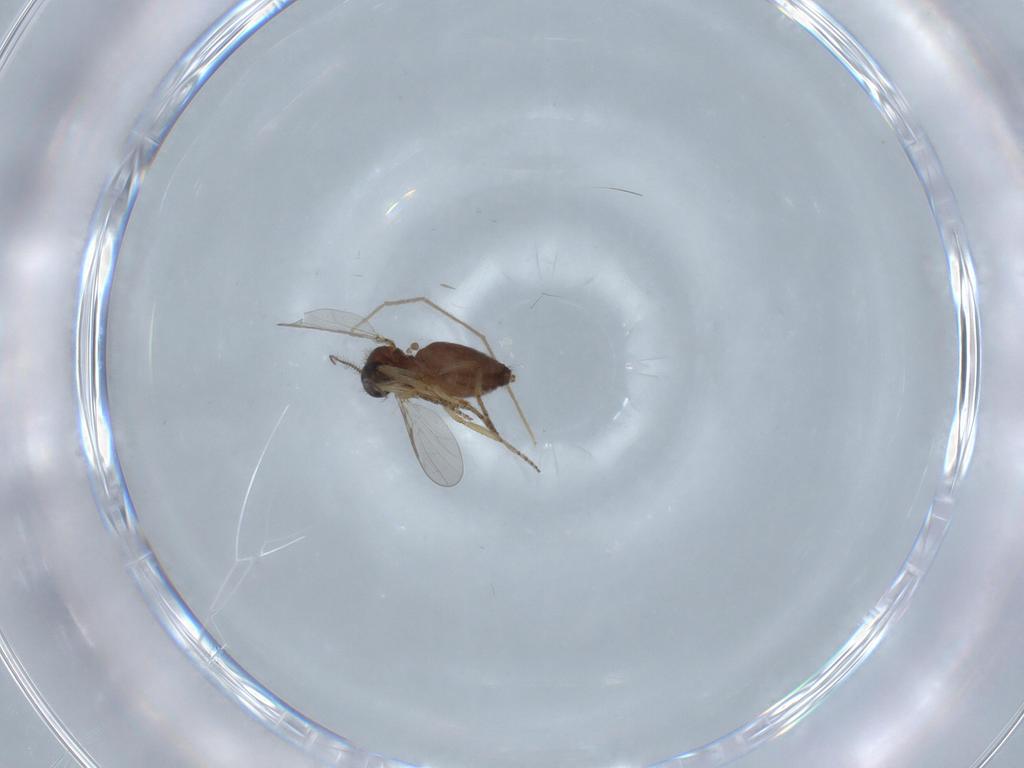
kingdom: Animalia
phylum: Arthropoda
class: Insecta
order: Diptera
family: Ceratopogonidae
